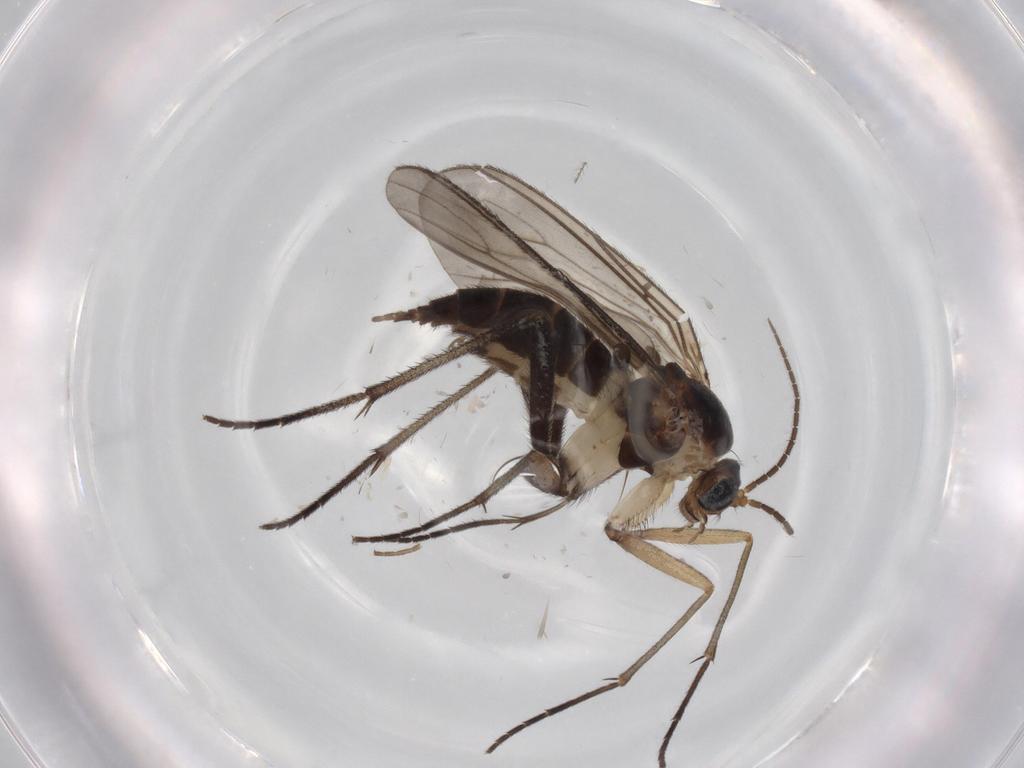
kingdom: Animalia
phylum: Arthropoda
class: Insecta
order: Diptera
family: Sciaridae
